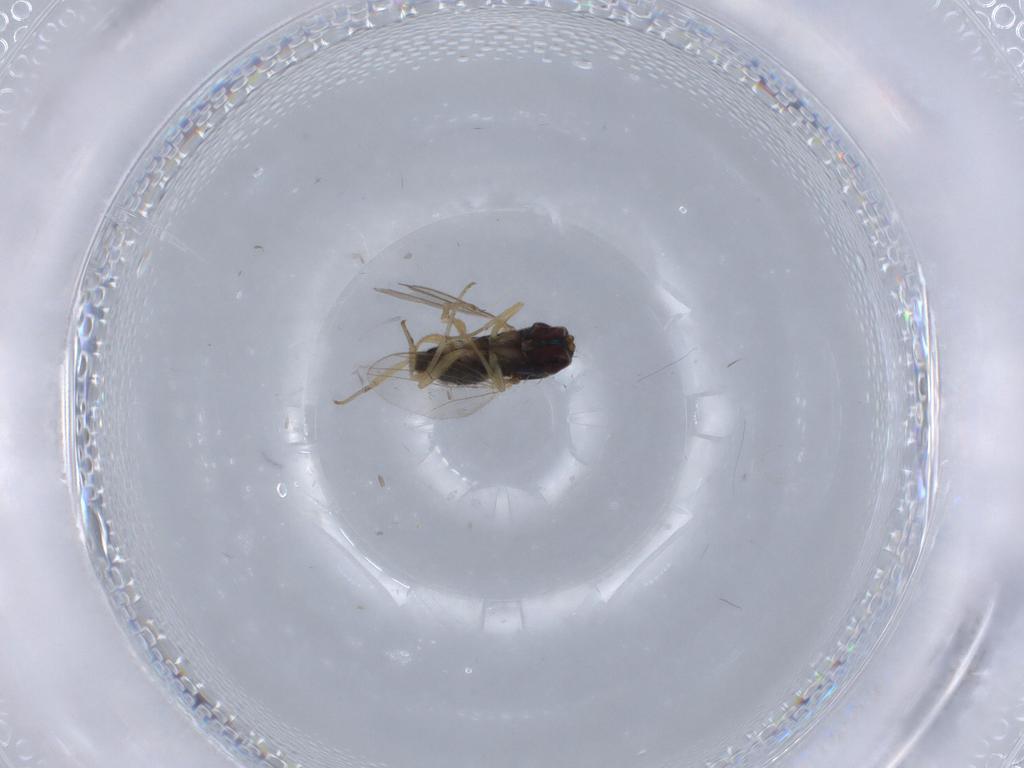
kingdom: Animalia
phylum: Arthropoda
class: Insecta
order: Diptera
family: Dolichopodidae
